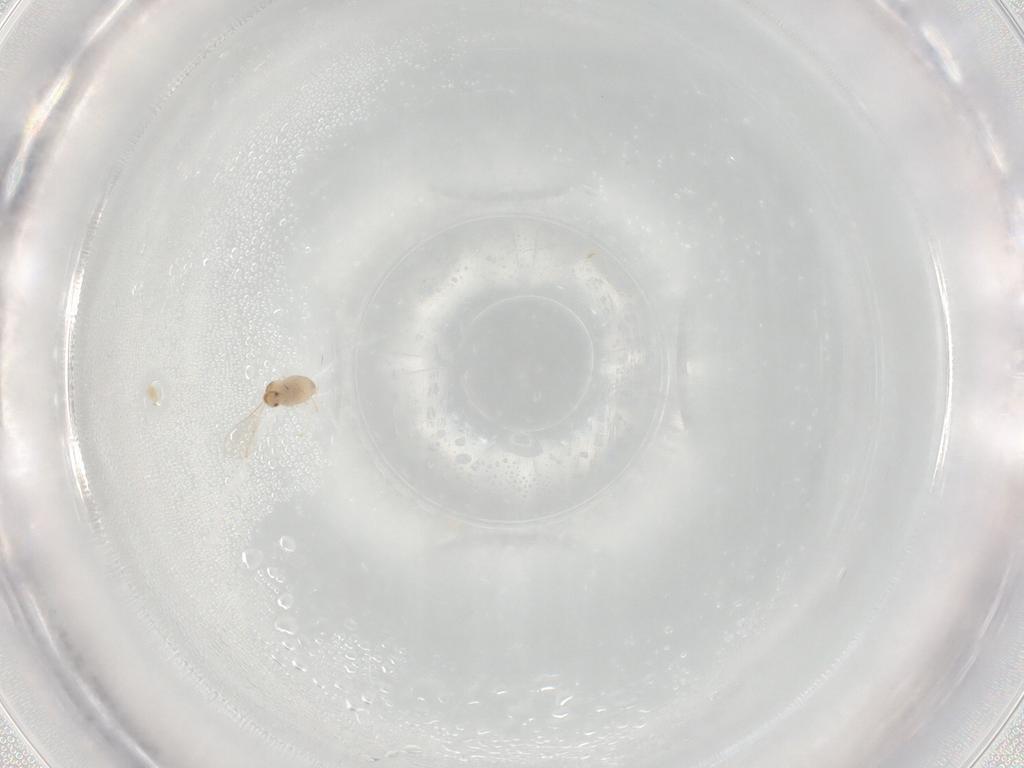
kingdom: Animalia
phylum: Arthropoda
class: Insecta
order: Diptera
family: Cecidomyiidae
